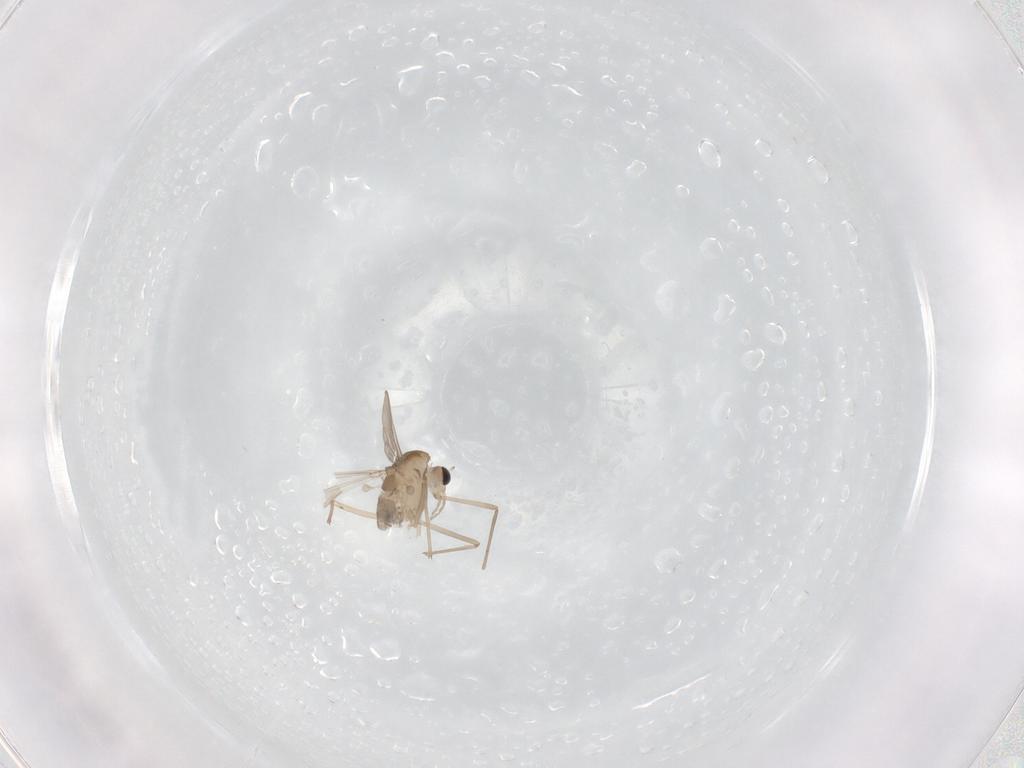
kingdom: Animalia
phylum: Arthropoda
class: Insecta
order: Diptera
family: Chironomidae
